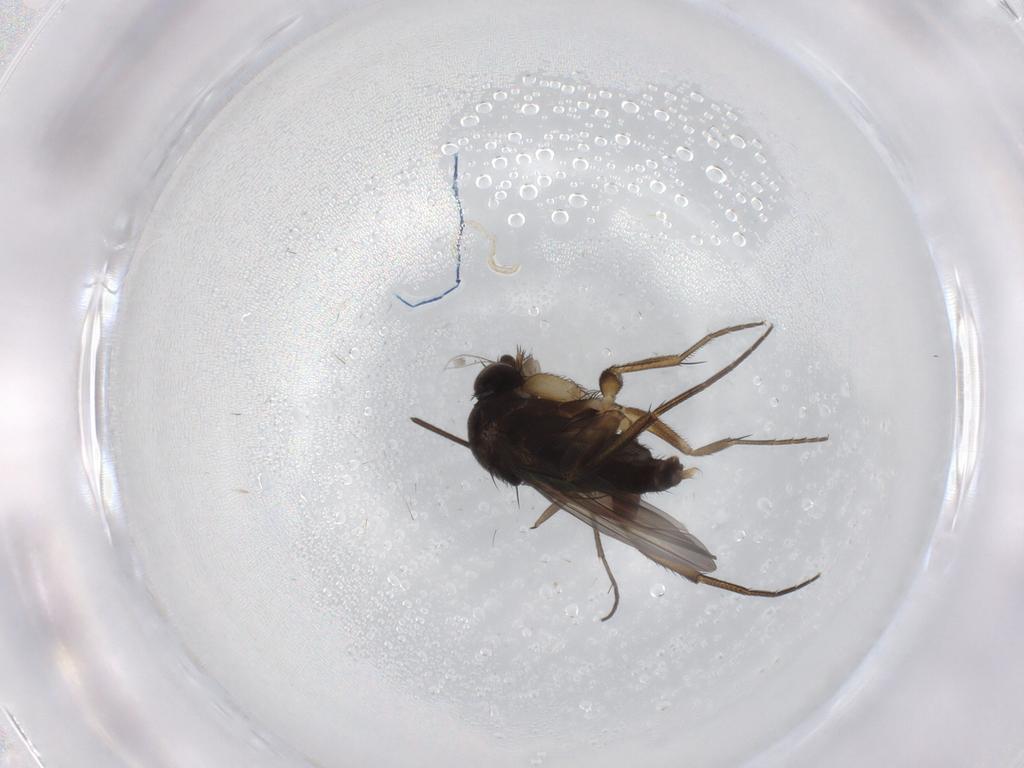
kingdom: Animalia
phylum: Arthropoda
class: Insecta
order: Diptera
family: Phoridae
